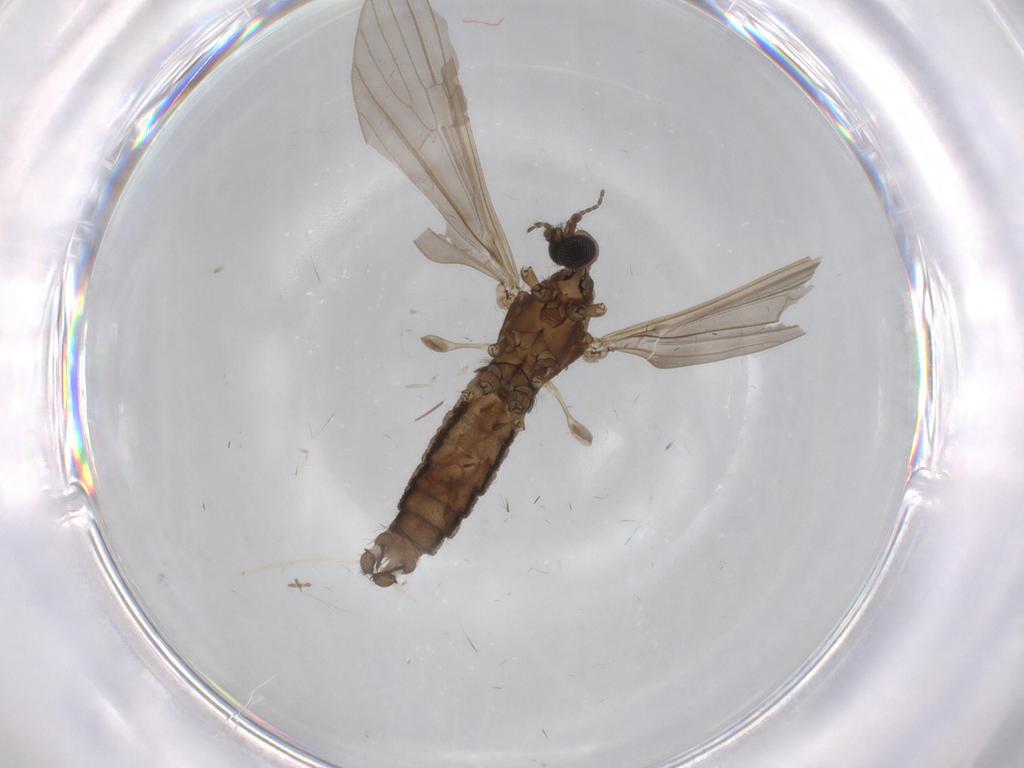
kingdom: Animalia
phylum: Arthropoda
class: Insecta
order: Diptera
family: Limoniidae
